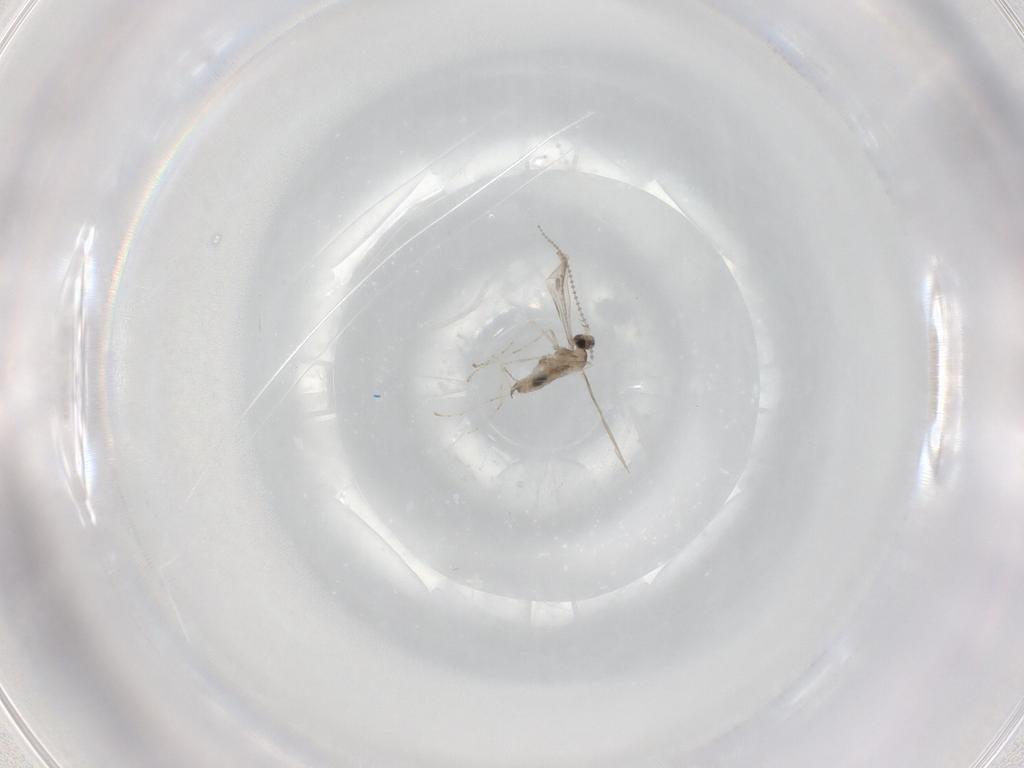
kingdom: Animalia
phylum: Arthropoda
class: Insecta
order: Diptera
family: Cecidomyiidae
